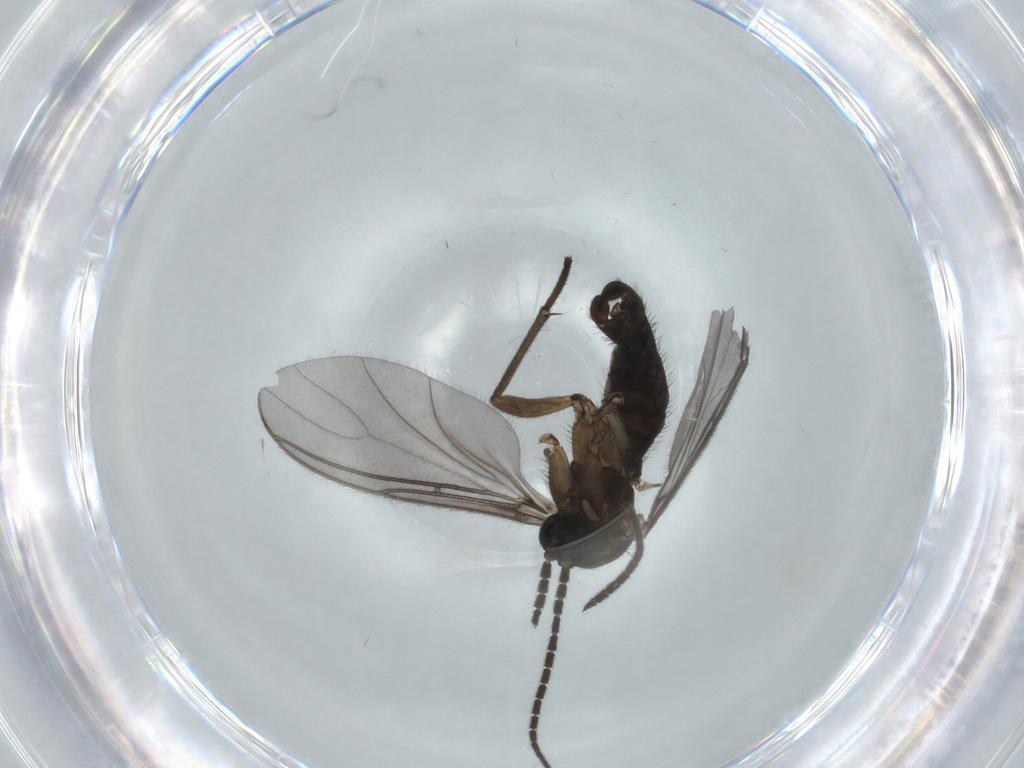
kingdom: Animalia
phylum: Arthropoda
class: Insecta
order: Diptera
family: Sciaridae
